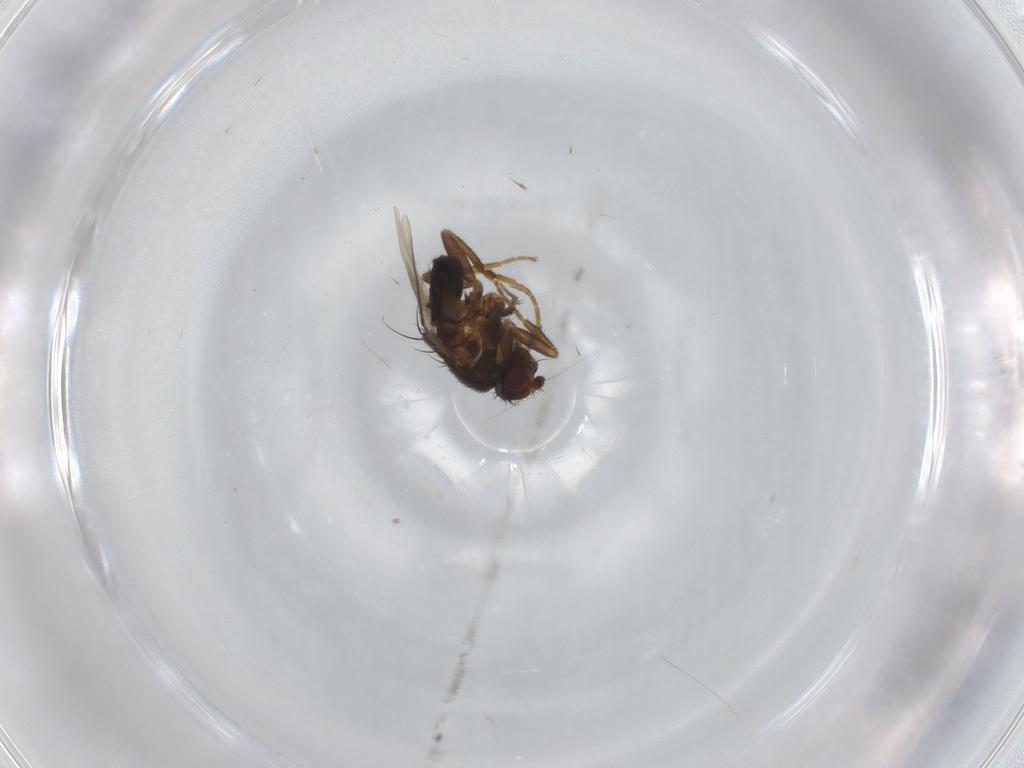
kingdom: Animalia
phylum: Arthropoda
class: Insecta
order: Diptera
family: Sphaeroceridae
